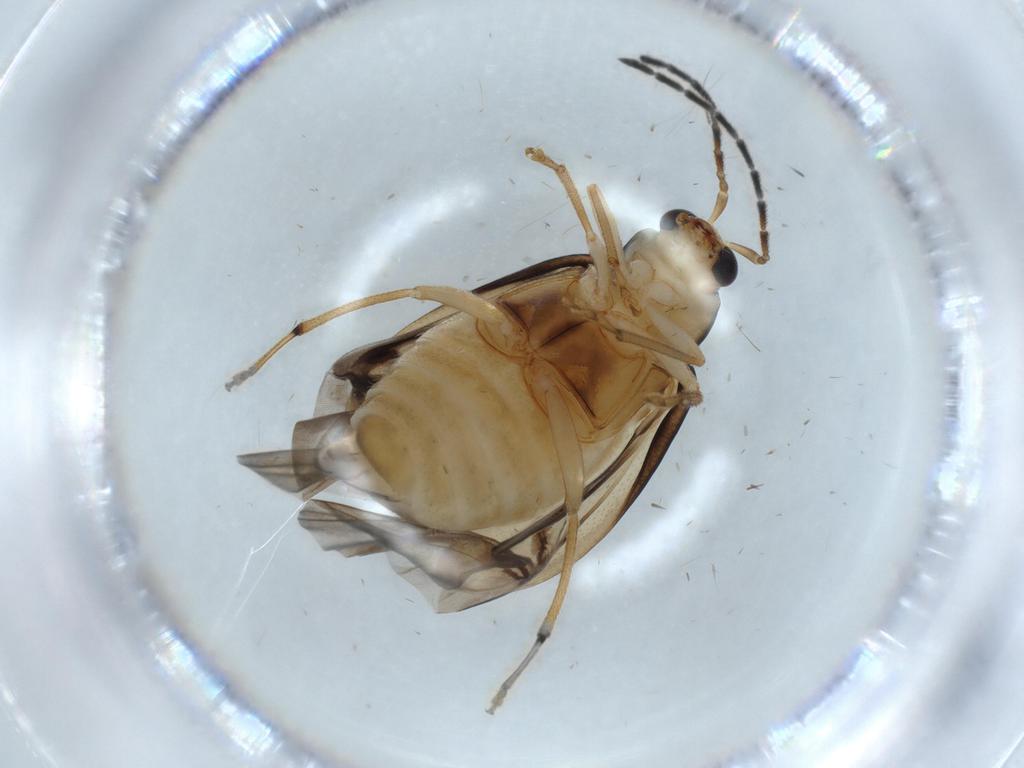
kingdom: Animalia
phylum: Arthropoda
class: Insecta
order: Coleoptera
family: Chrysomelidae
